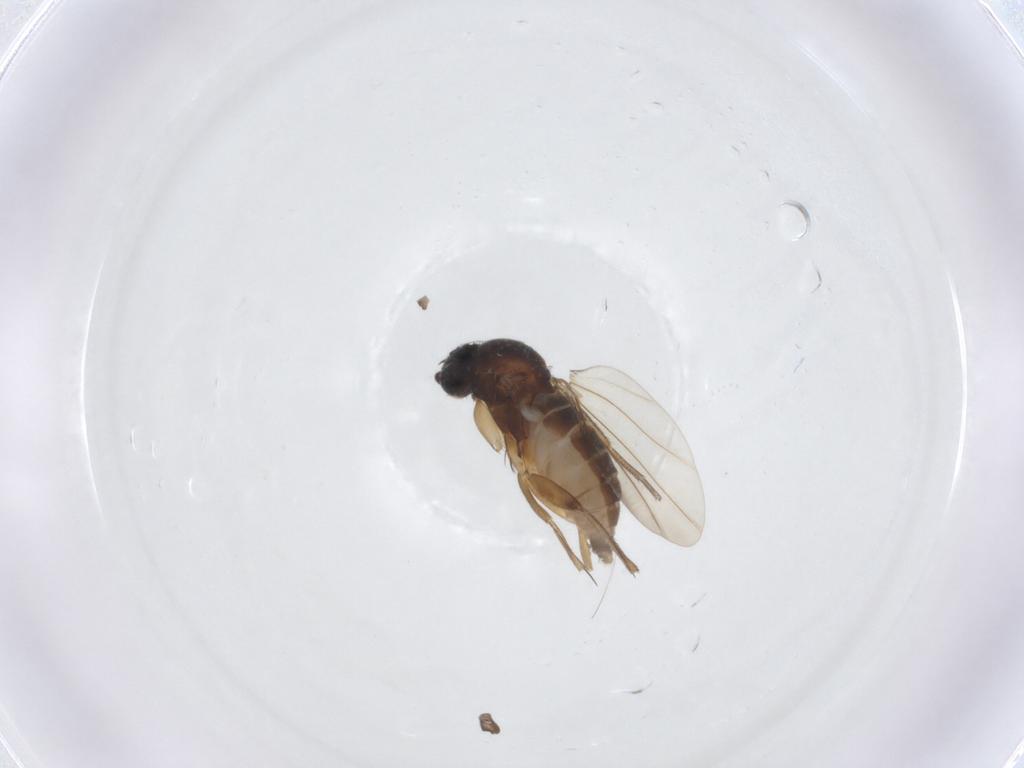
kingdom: Animalia
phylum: Arthropoda
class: Insecta
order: Diptera
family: Phoridae
